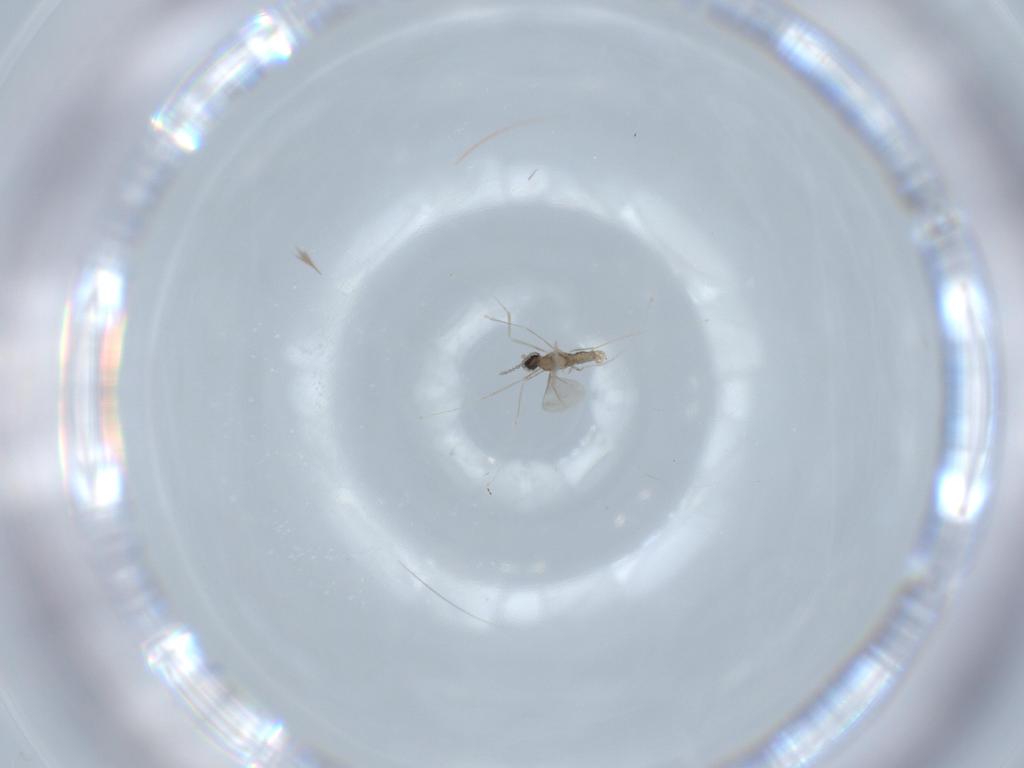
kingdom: Animalia
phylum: Arthropoda
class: Insecta
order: Diptera
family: Cecidomyiidae
